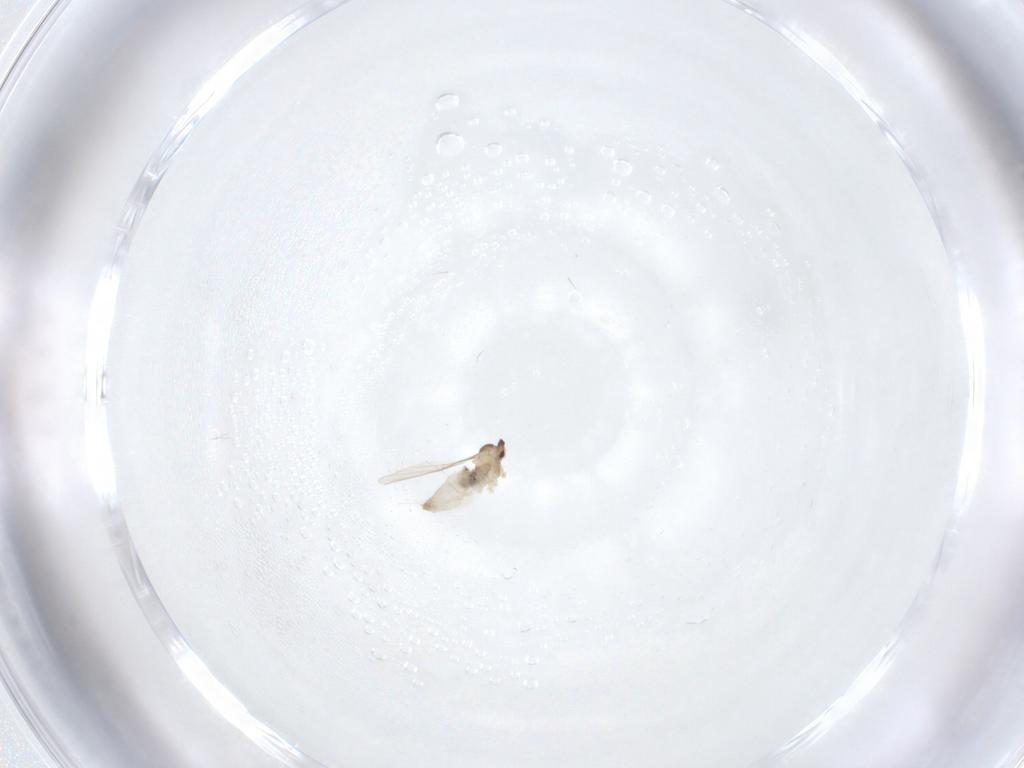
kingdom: Animalia
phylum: Arthropoda
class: Insecta
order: Diptera
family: Cecidomyiidae
